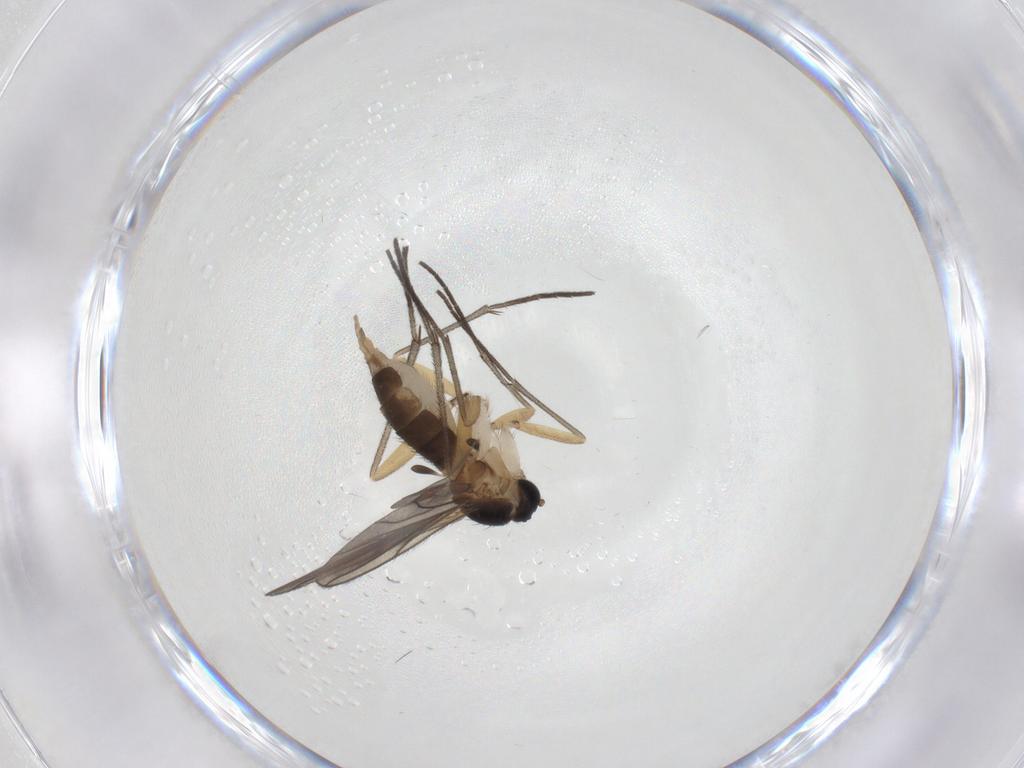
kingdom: Animalia
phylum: Arthropoda
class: Insecta
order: Diptera
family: Sciaridae
